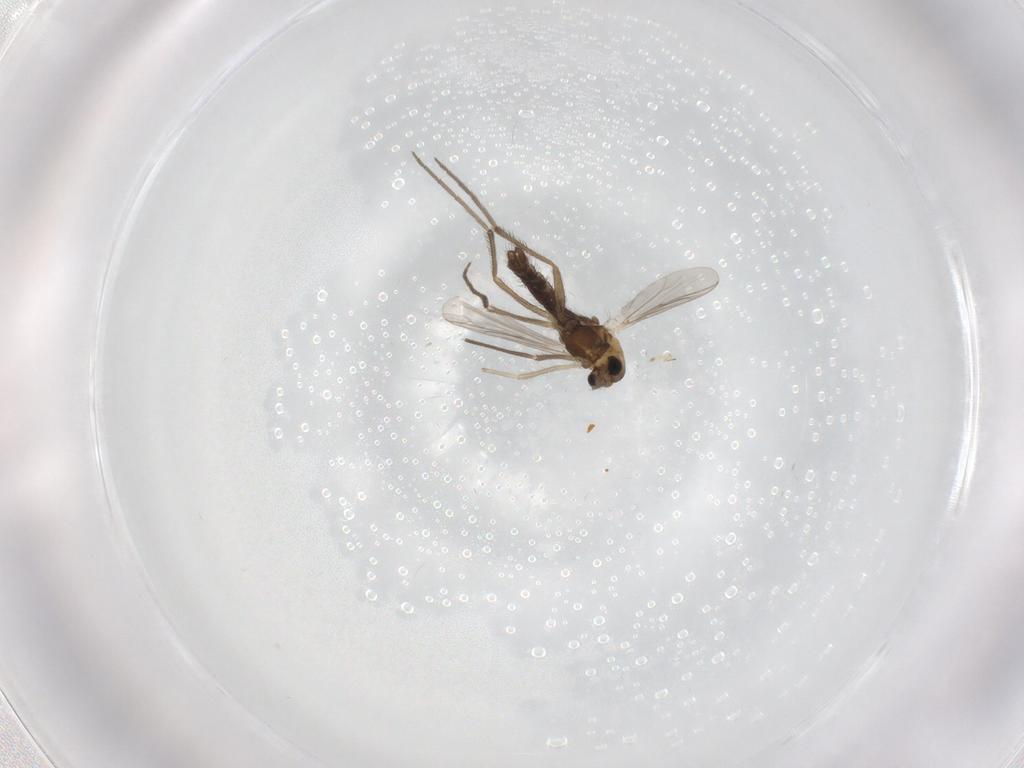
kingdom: Animalia
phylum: Arthropoda
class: Insecta
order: Diptera
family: Chironomidae
